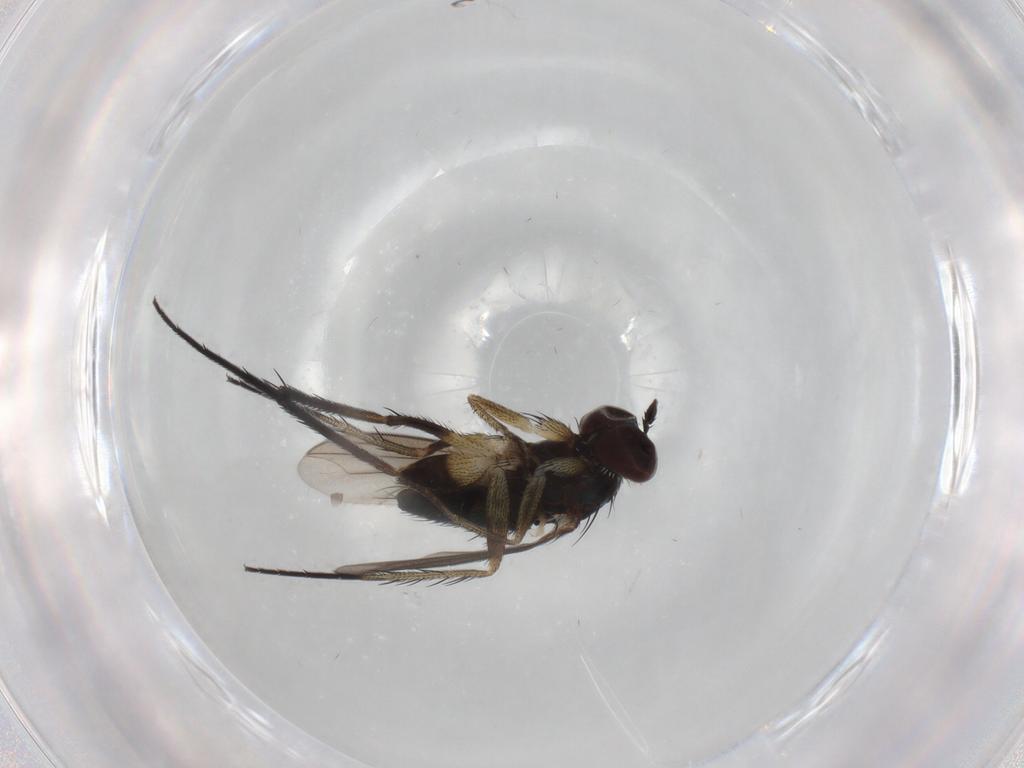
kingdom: Animalia
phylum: Arthropoda
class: Insecta
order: Diptera
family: Dolichopodidae
